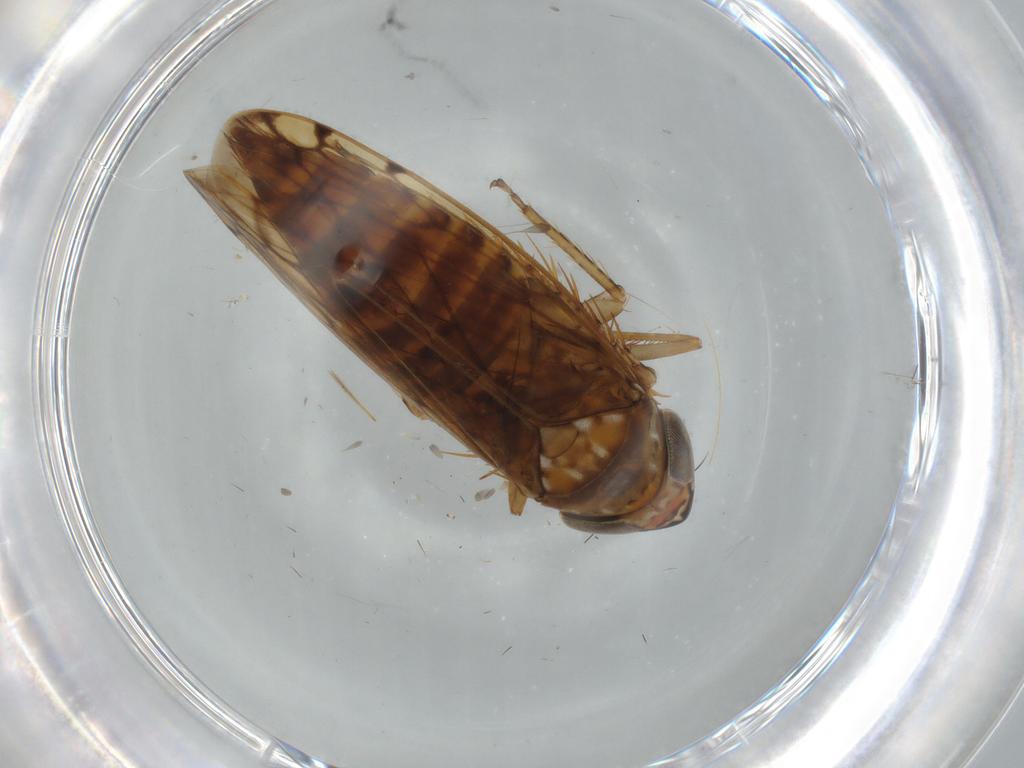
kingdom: Animalia
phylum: Arthropoda
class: Insecta
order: Hemiptera
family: Cicadellidae
